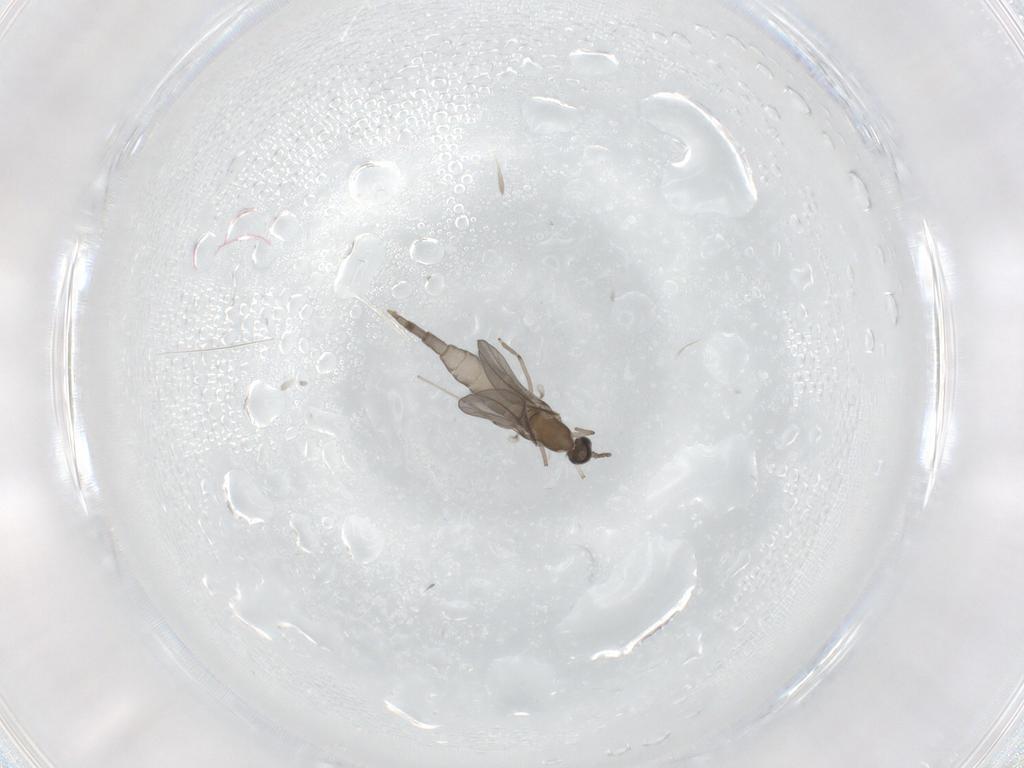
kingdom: Animalia
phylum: Arthropoda
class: Insecta
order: Diptera
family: Cecidomyiidae
